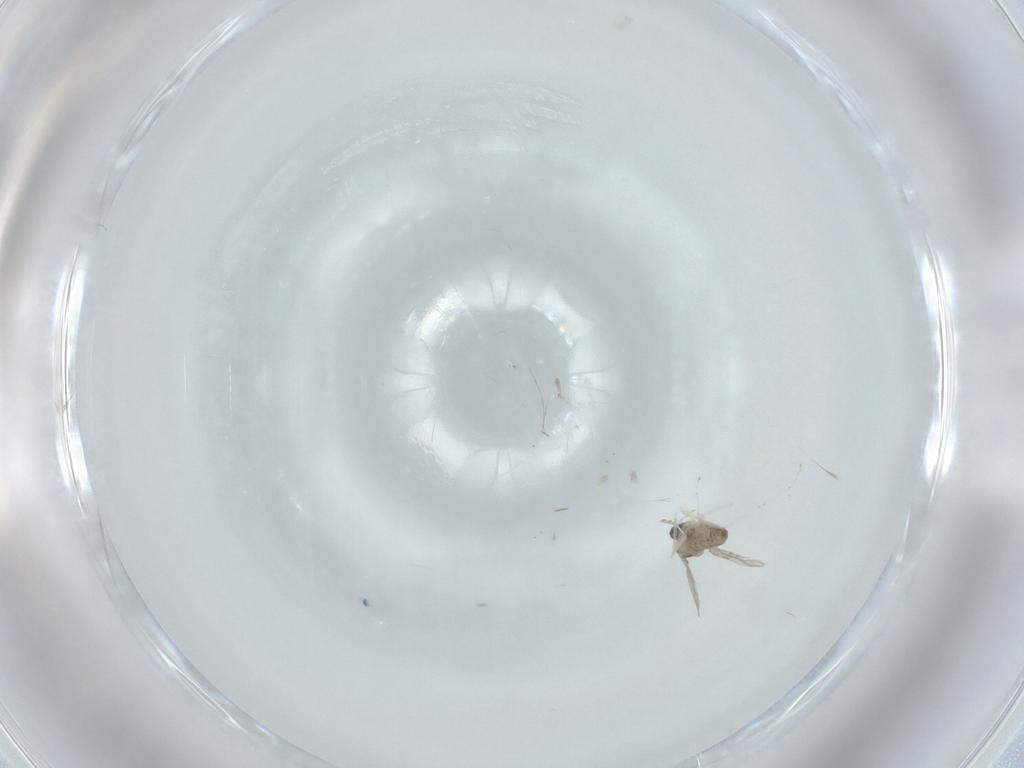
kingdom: Animalia
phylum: Arthropoda
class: Insecta
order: Diptera
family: Cecidomyiidae
